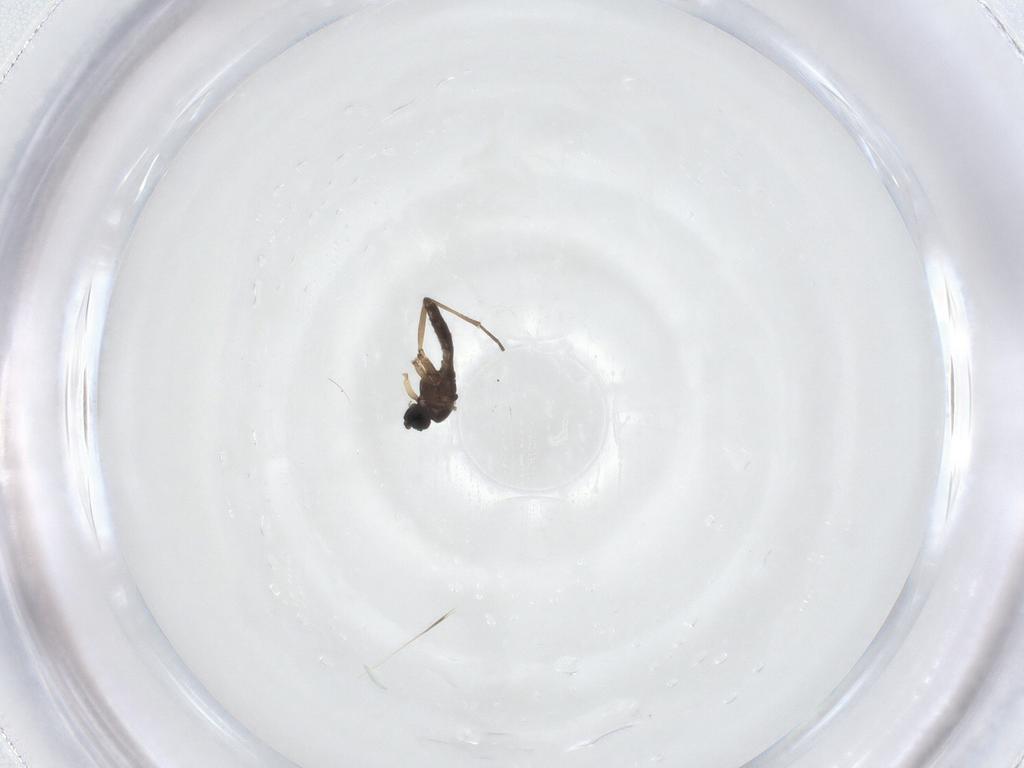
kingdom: Animalia
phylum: Arthropoda
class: Insecta
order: Diptera
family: Sciaridae
